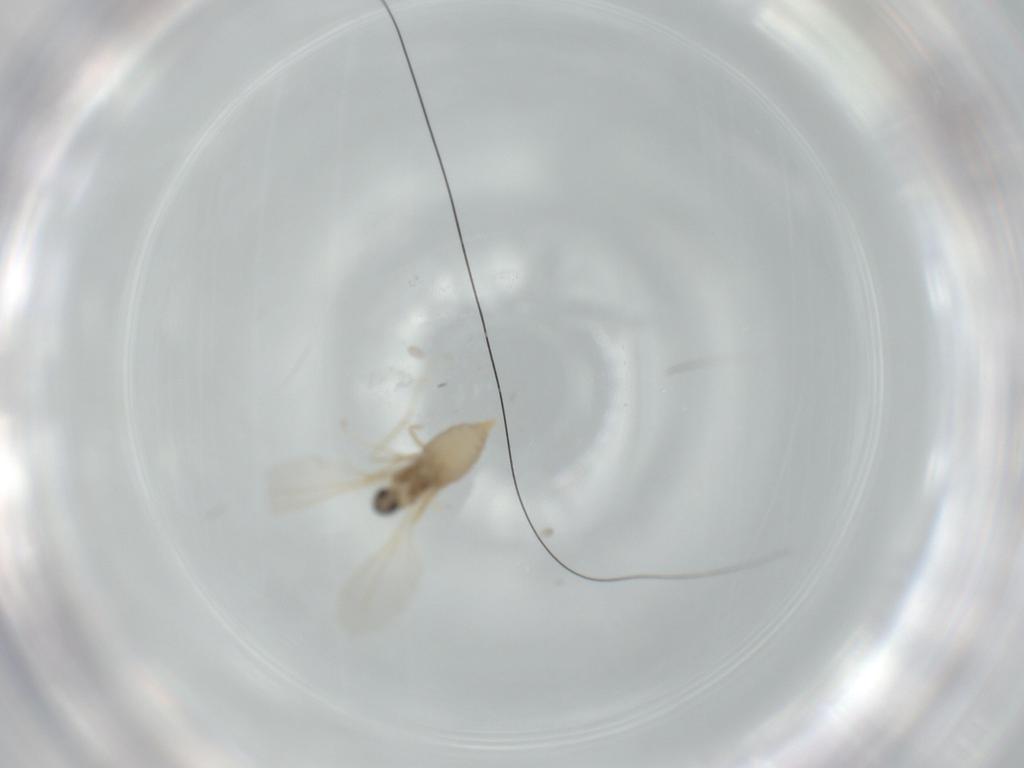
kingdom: Animalia
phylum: Arthropoda
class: Insecta
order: Diptera
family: Cecidomyiidae
